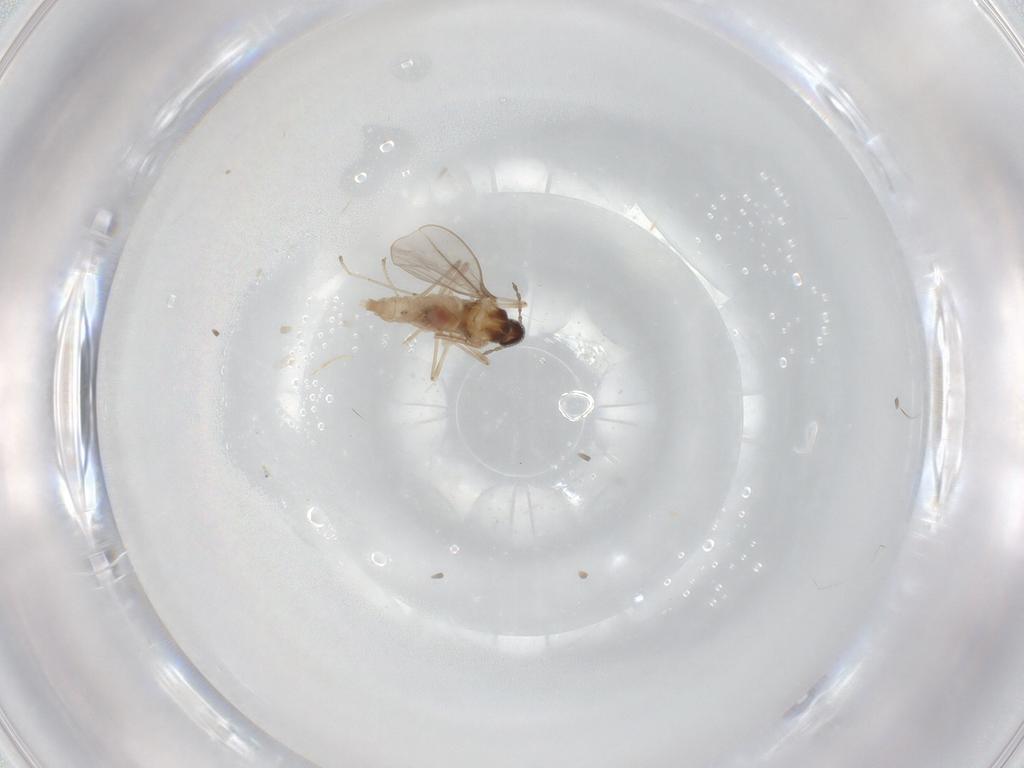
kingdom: Animalia
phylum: Arthropoda
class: Insecta
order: Diptera
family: Cecidomyiidae
